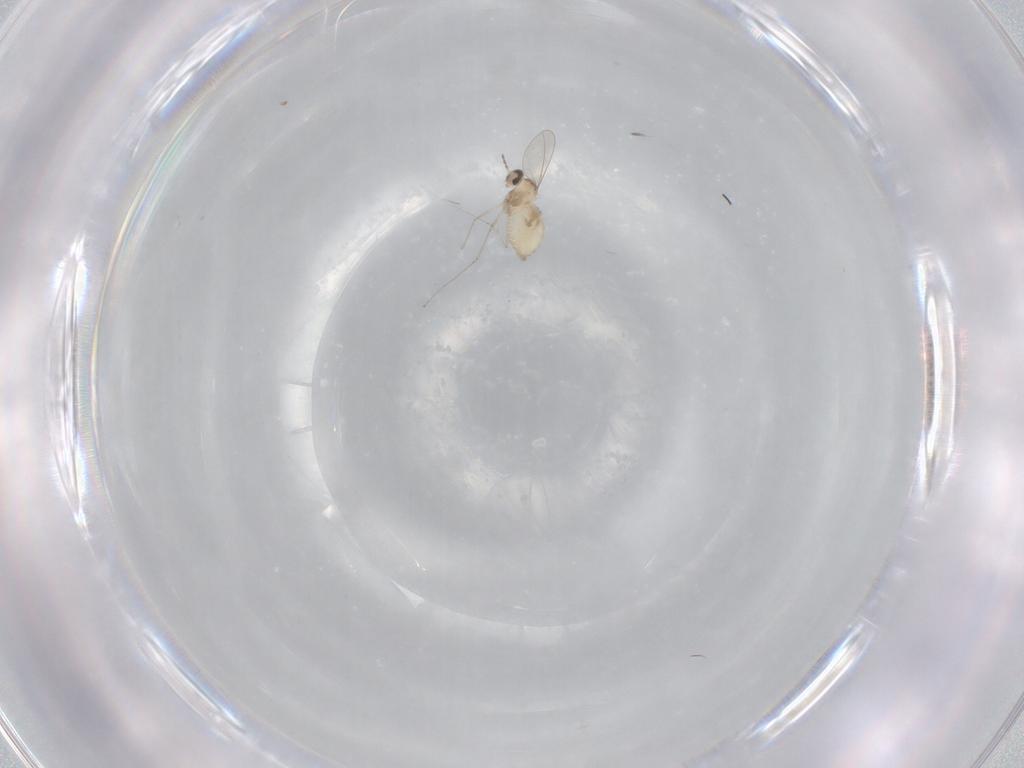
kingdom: Animalia
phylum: Arthropoda
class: Insecta
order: Diptera
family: Cecidomyiidae
